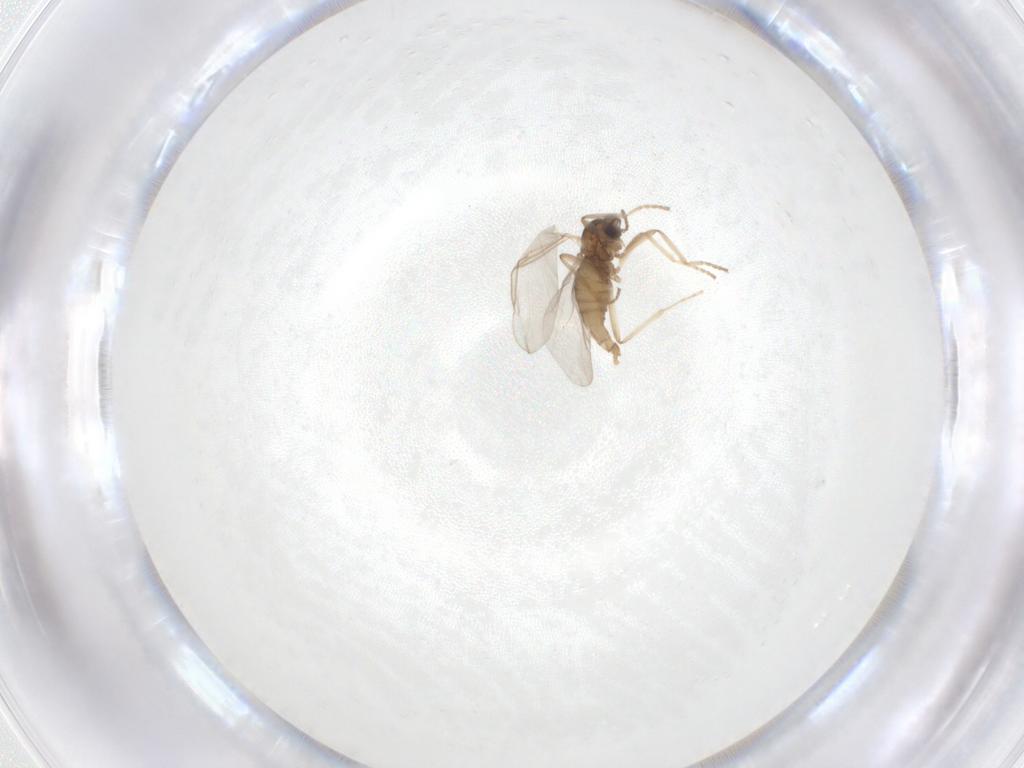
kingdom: Animalia
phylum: Arthropoda
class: Insecta
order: Diptera
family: Cecidomyiidae
